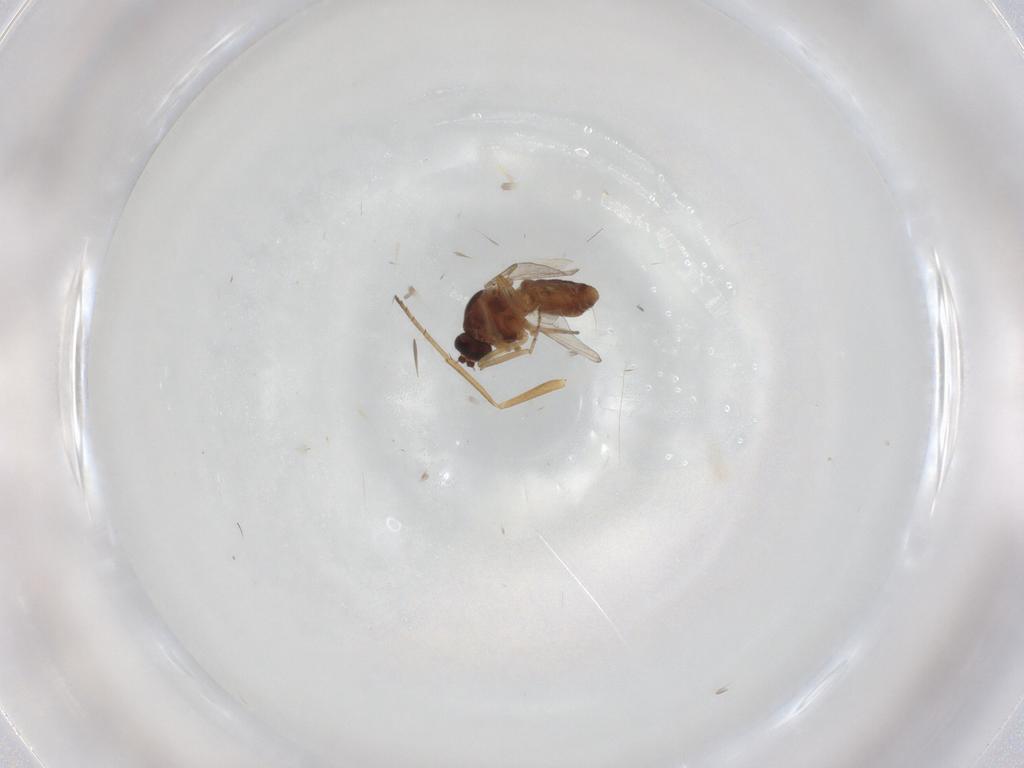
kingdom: Animalia
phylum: Arthropoda
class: Insecta
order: Diptera
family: Ceratopogonidae
